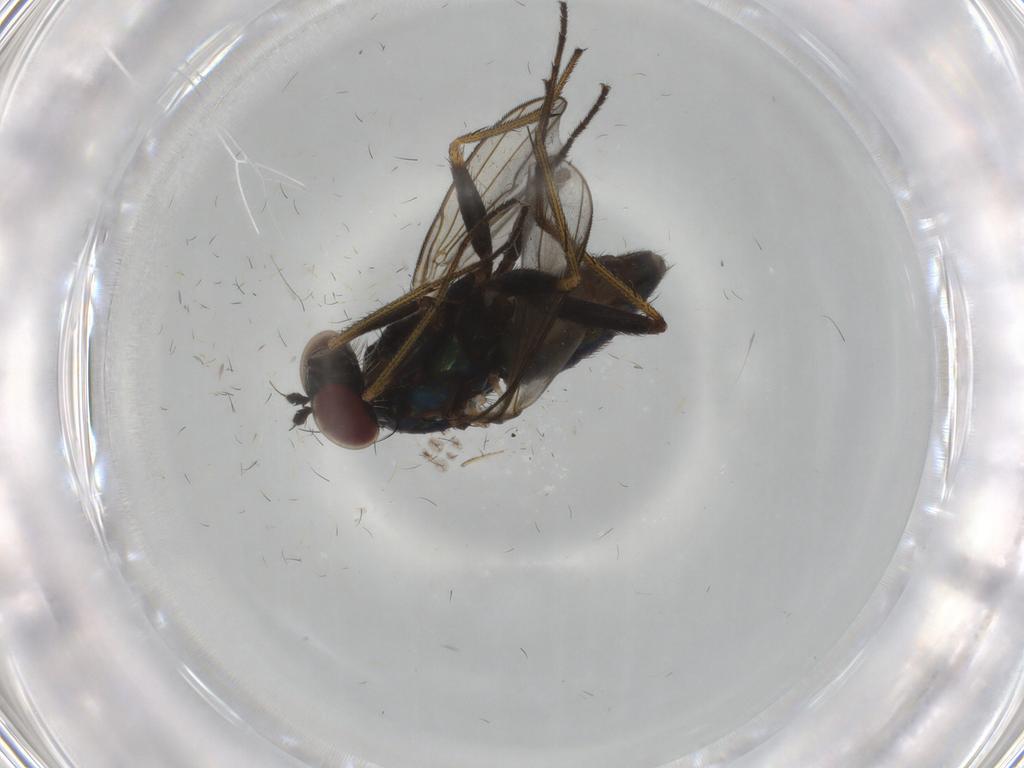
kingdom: Animalia
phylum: Arthropoda
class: Insecta
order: Diptera
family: Dolichopodidae
